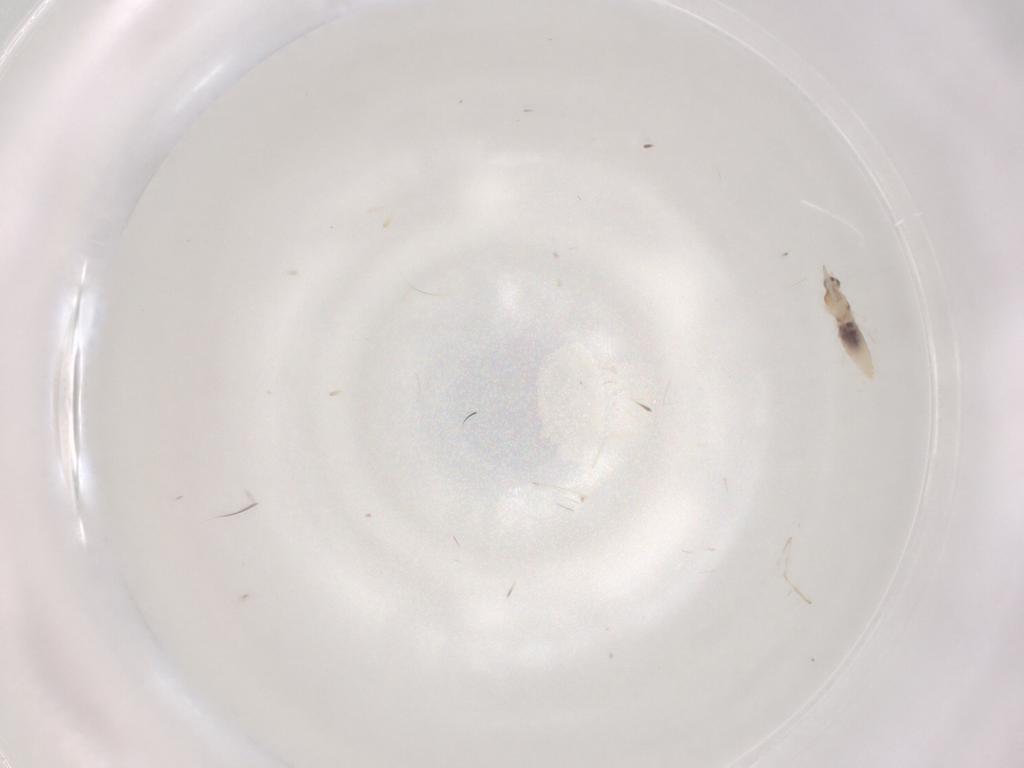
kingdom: Animalia
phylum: Arthropoda
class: Insecta
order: Diptera
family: Cecidomyiidae
